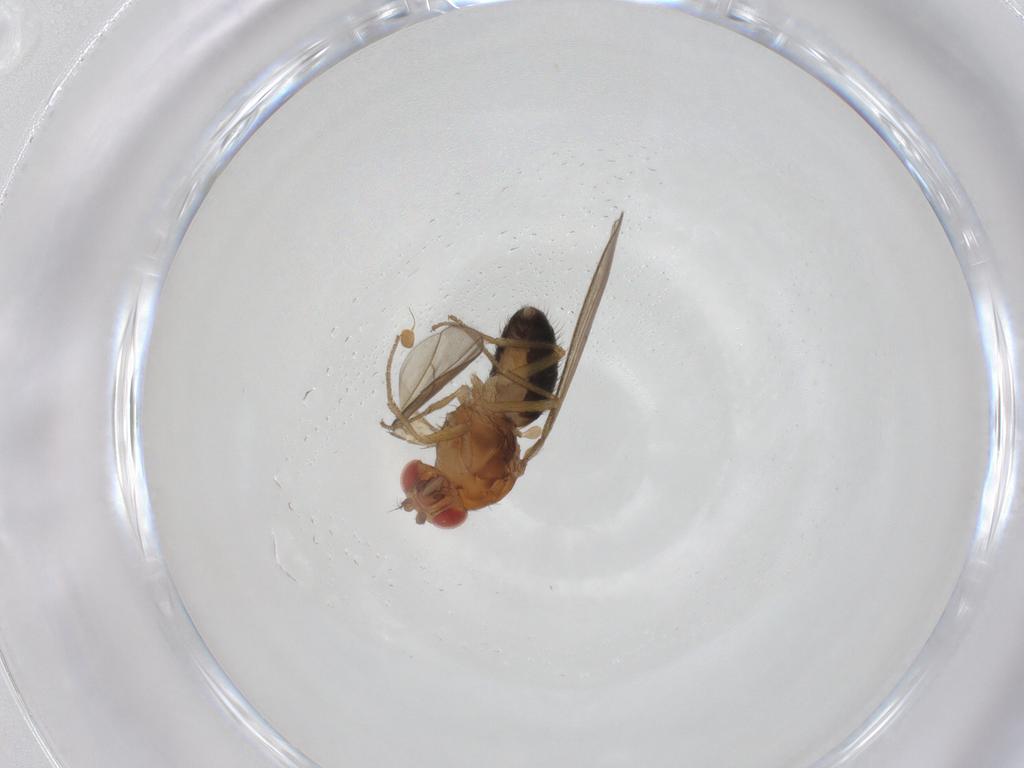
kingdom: Animalia
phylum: Arthropoda
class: Insecta
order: Diptera
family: Drosophilidae
